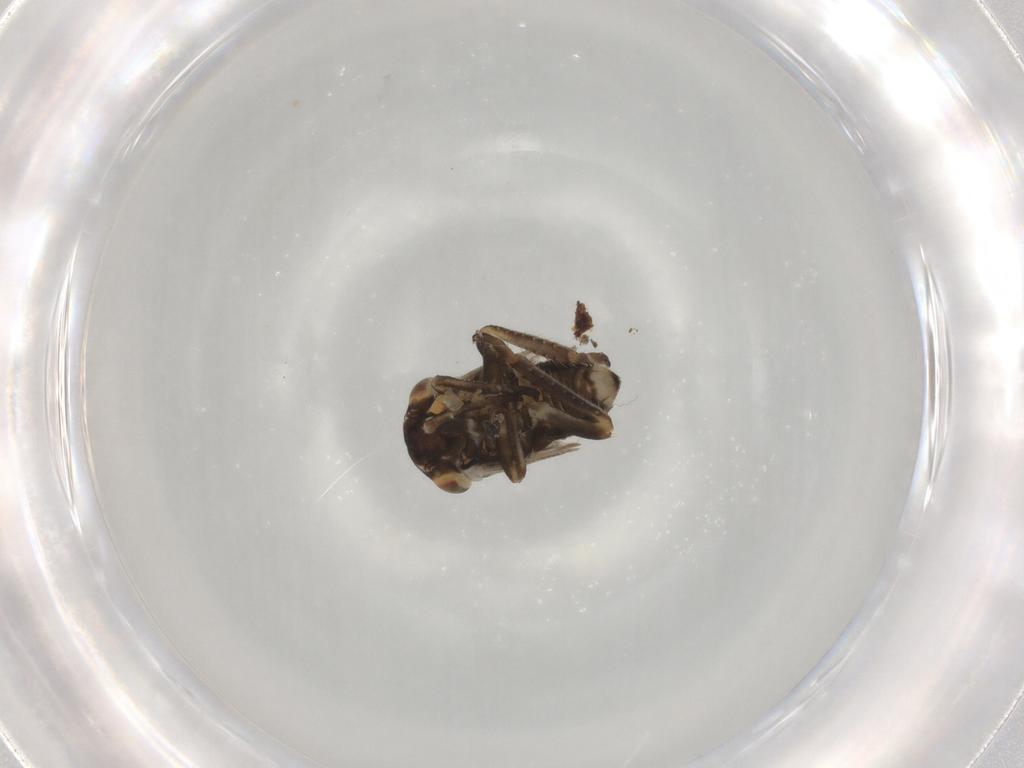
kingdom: Animalia
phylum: Arthropoda
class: Insecta
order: Hemiptera
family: Cicadellidae
